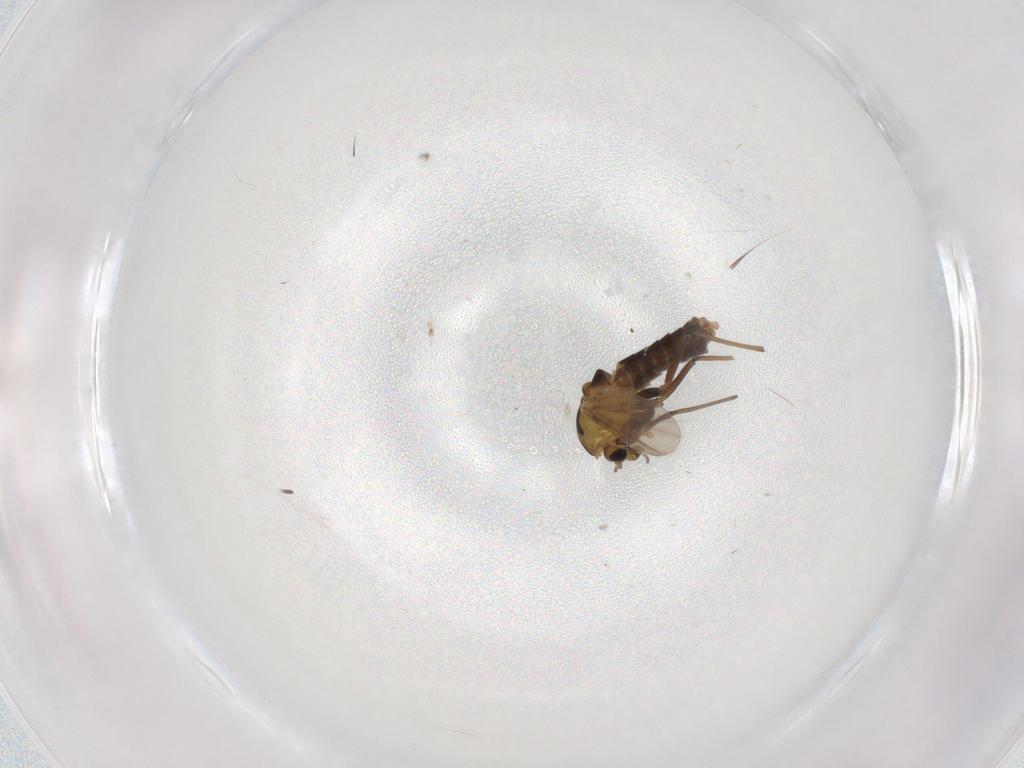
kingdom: Animalia
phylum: Arthropoda
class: Insecta
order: Diptera
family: Chironomidae
